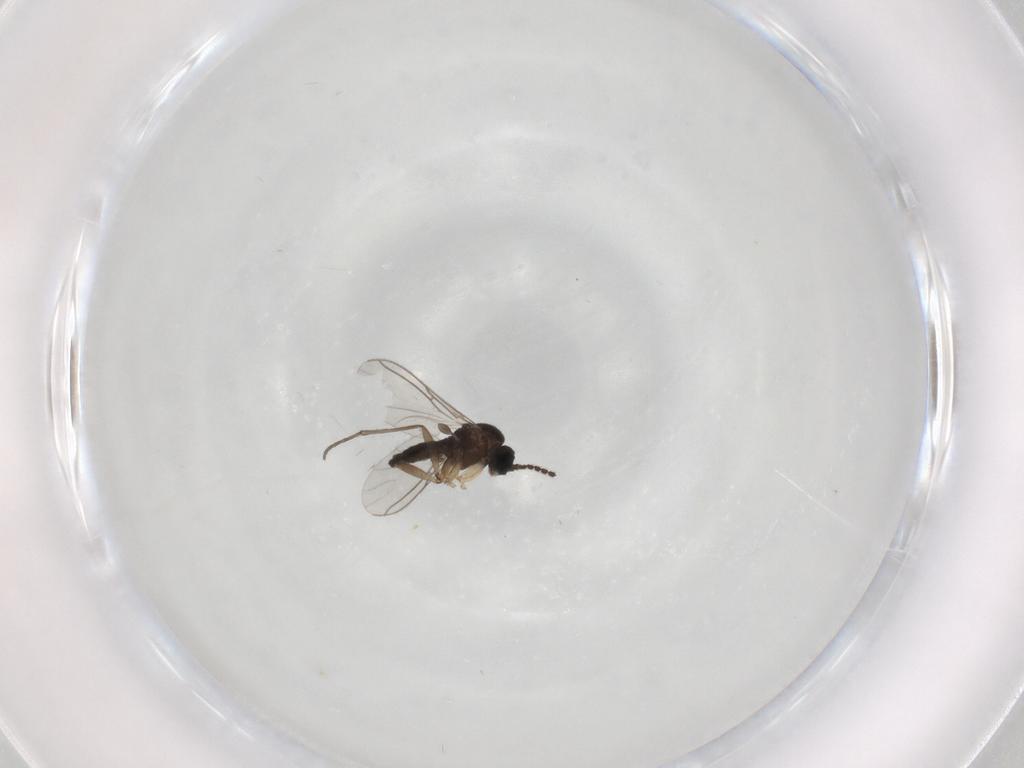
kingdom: Animalia
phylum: Arthropoda
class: Insecta
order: Diptera
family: Sciaridae
